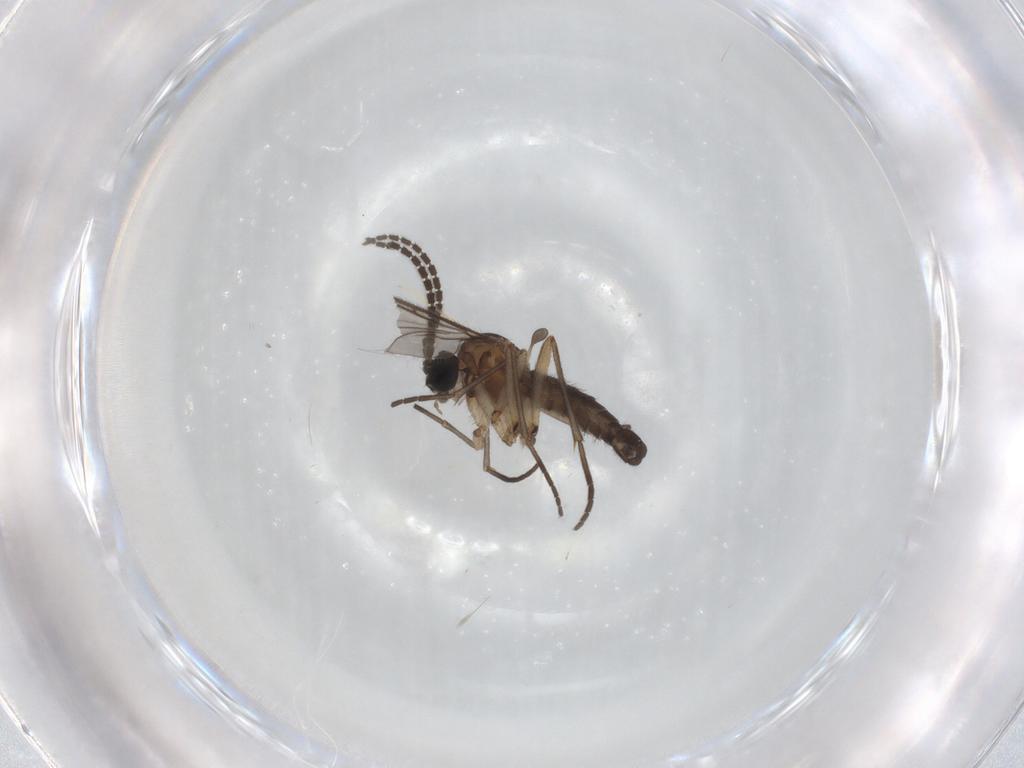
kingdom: Animalia
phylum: Arthropoda
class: Insecta
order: Diptera
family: Cecidomyiidae
